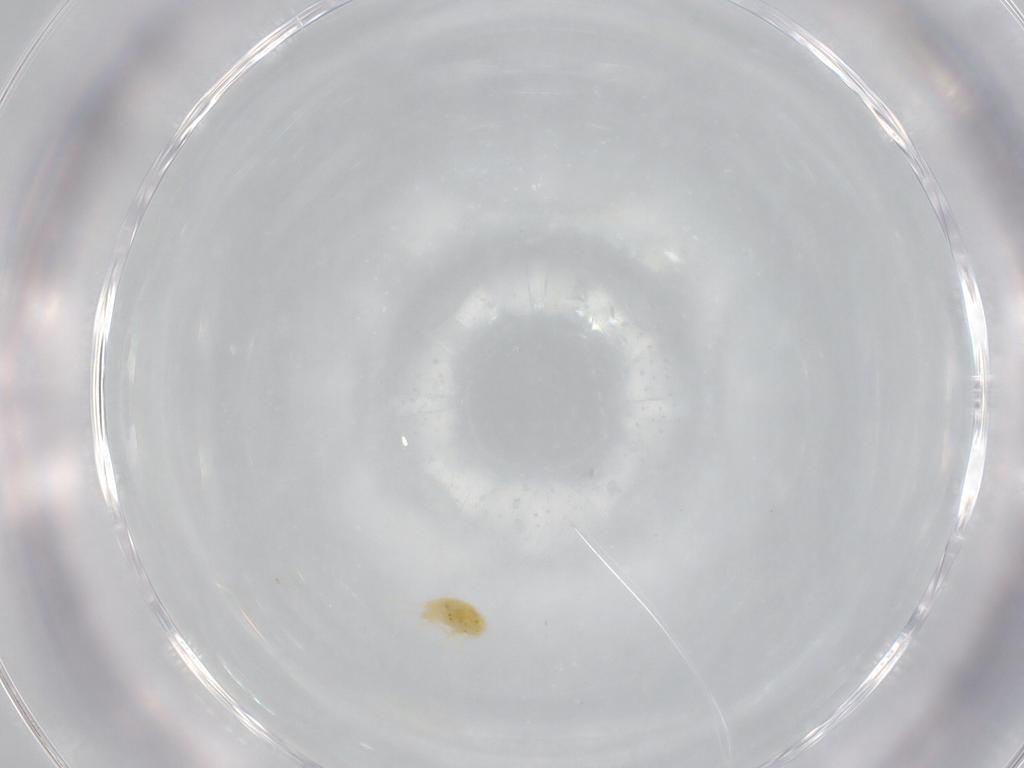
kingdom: Animalia
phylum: Arthropoda
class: Arachnida
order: Trombidiformes
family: Tetranychidae
